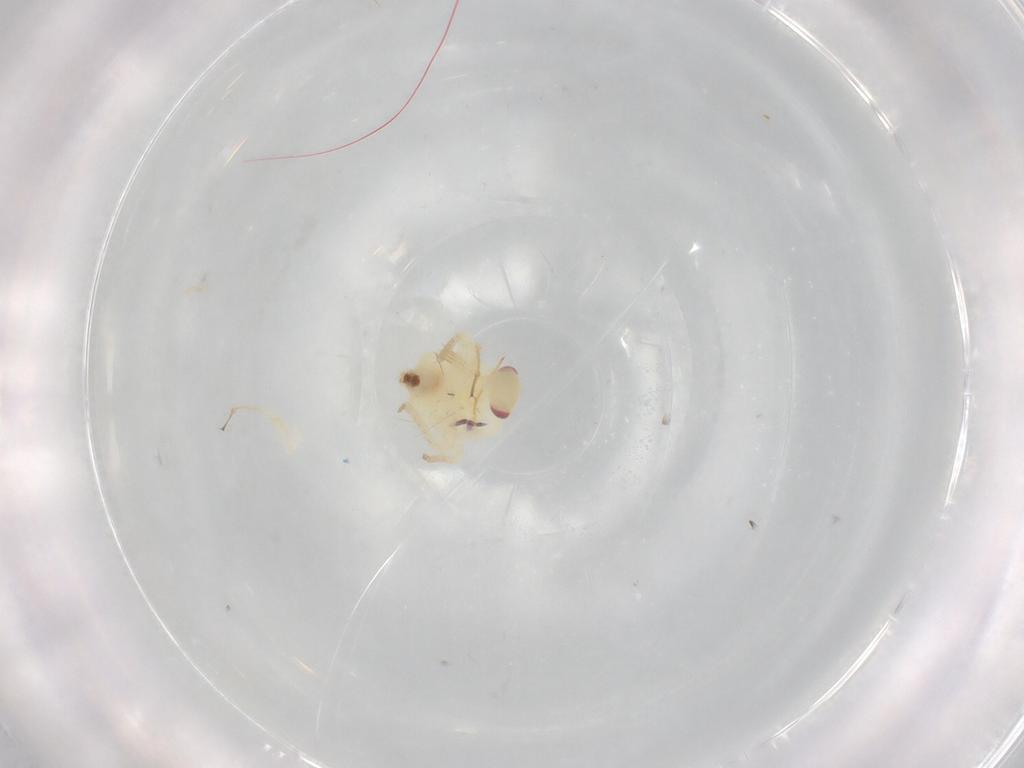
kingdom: Animalia
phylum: Arthropoda
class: Insecta
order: Hemiptera
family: Miridae
